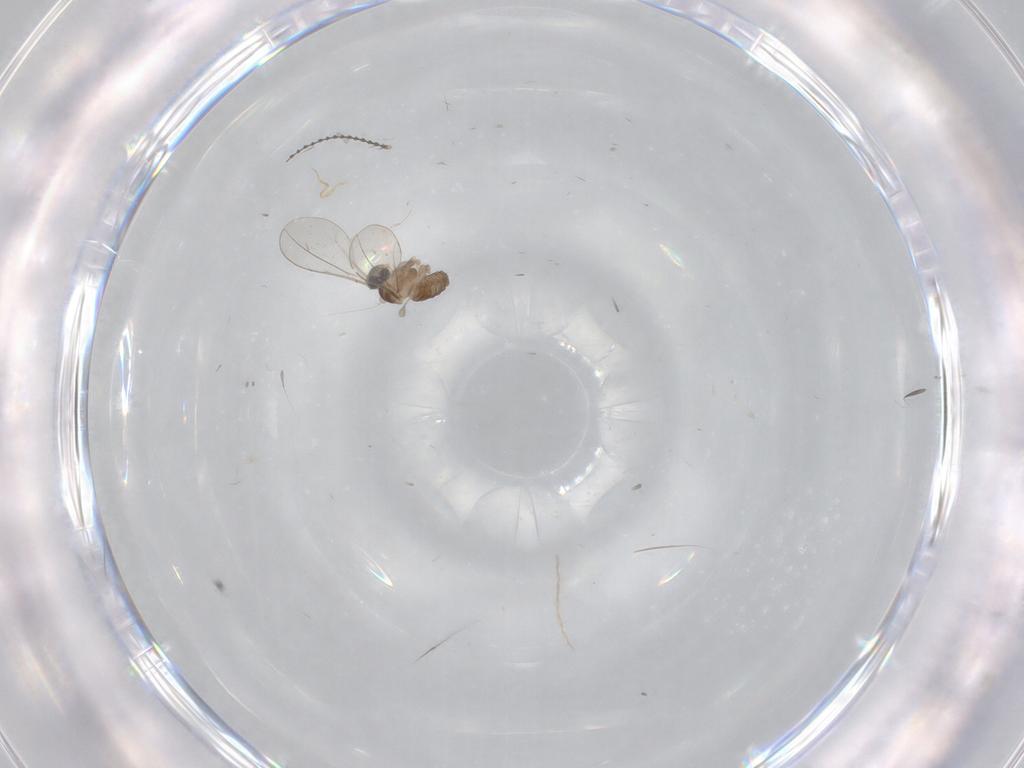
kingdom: Animalia
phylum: Arthropoda
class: Insecta
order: Diptera
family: Cecidomyiidae
